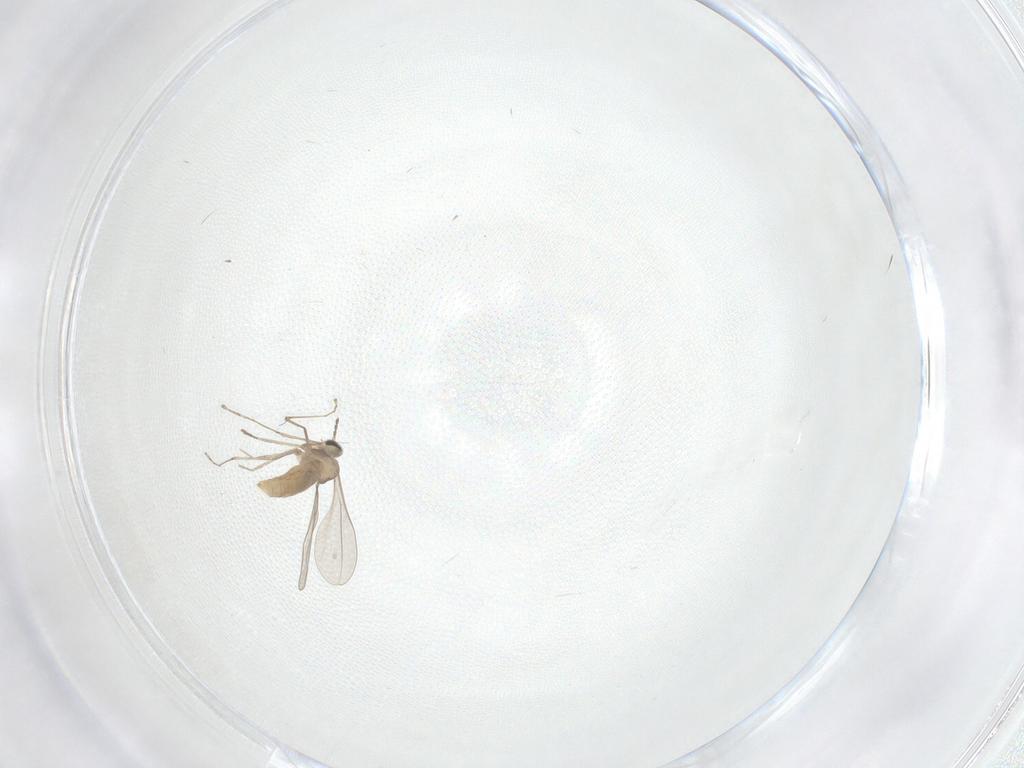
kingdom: Animalia
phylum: Arthropoda
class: Insecta
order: Diptera
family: Cecidomyiidae
